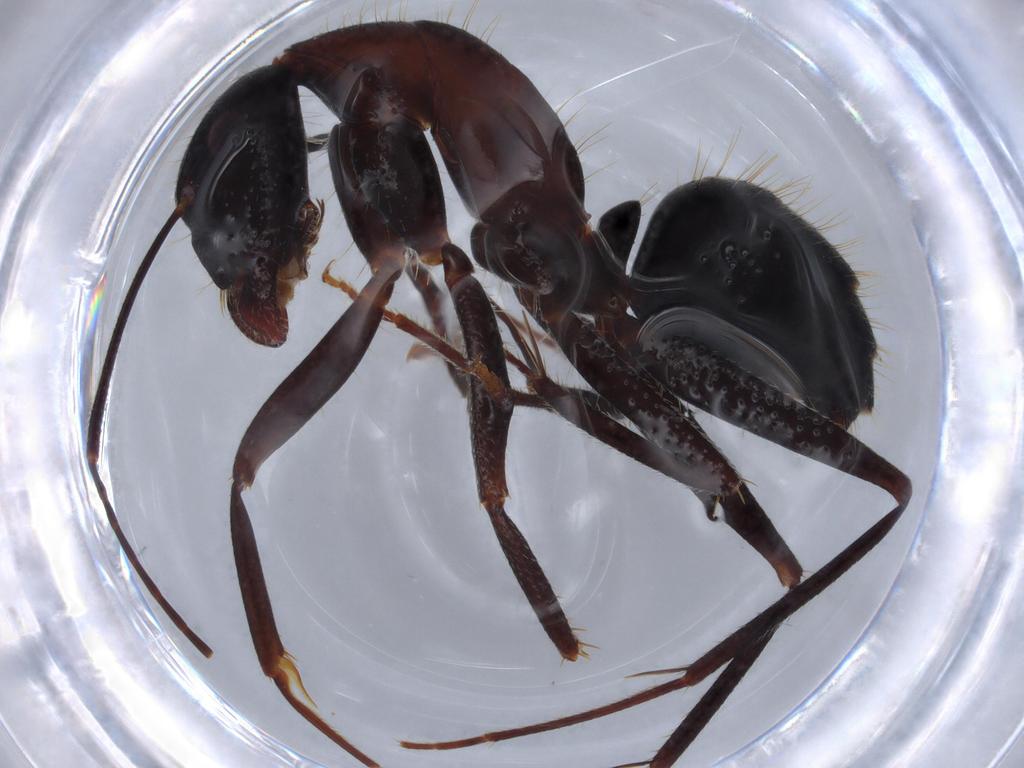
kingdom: Animalia
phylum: Arthropoda
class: Insecta
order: Hymenoptera
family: Formicidae
